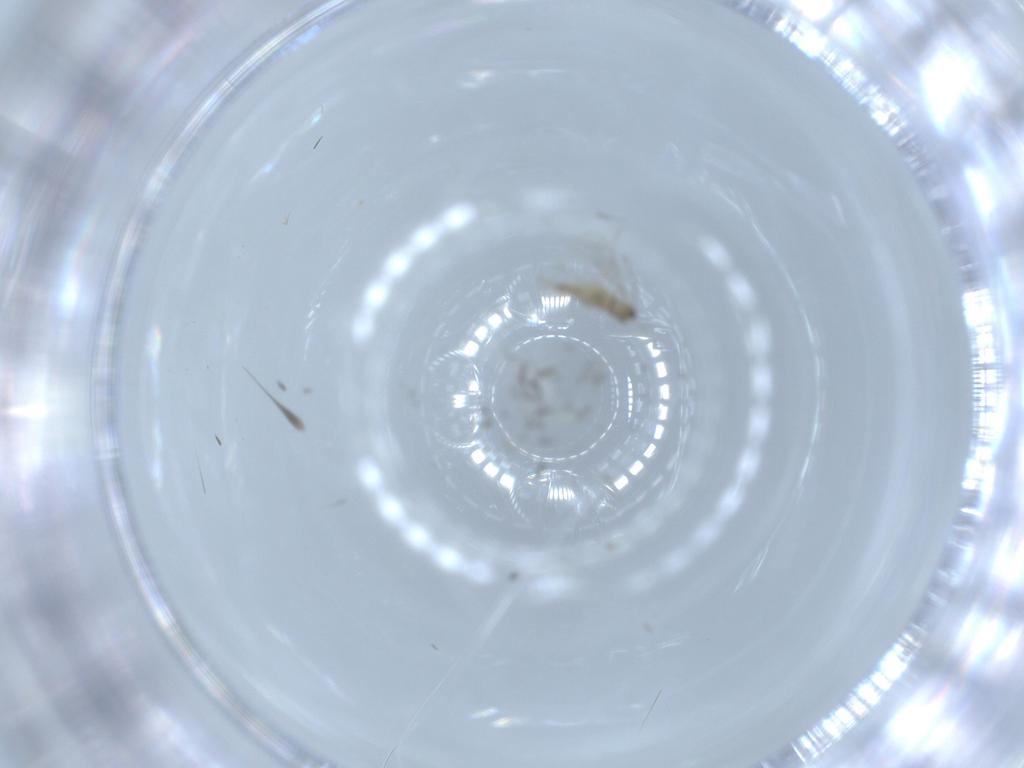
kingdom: Animalia
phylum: Arthropoda
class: Insecta
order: Diptera
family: Cecidomyiidae
